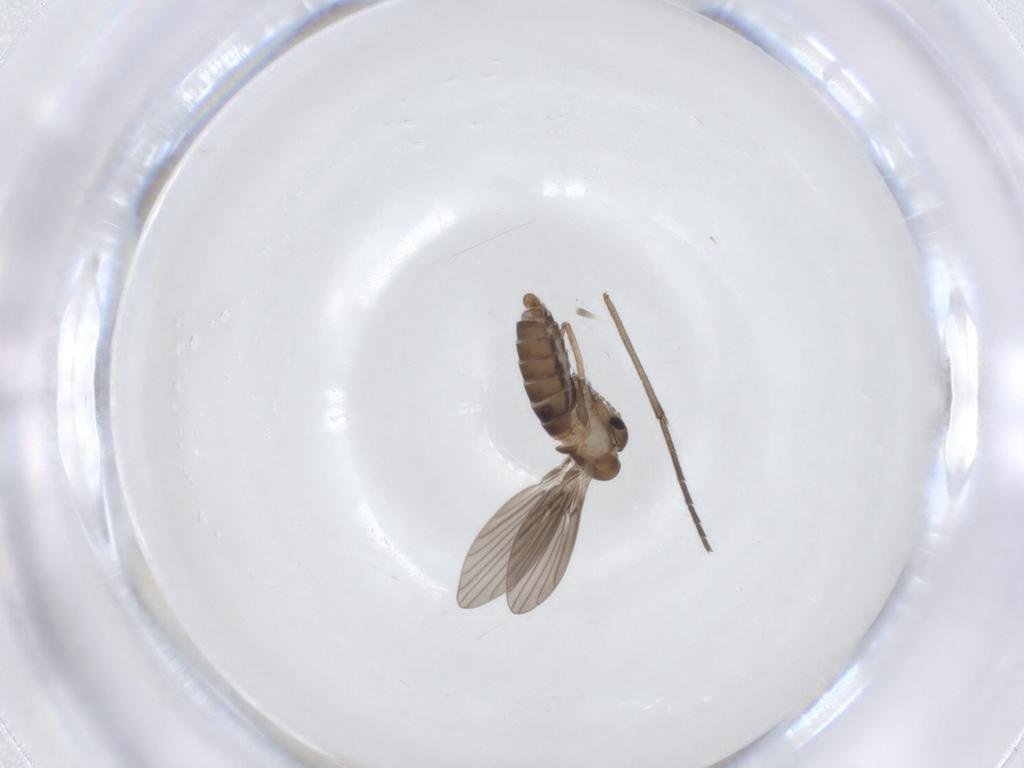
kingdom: Animalia
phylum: Arthropoda
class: Insecta
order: Diptera
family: Psychodidae
